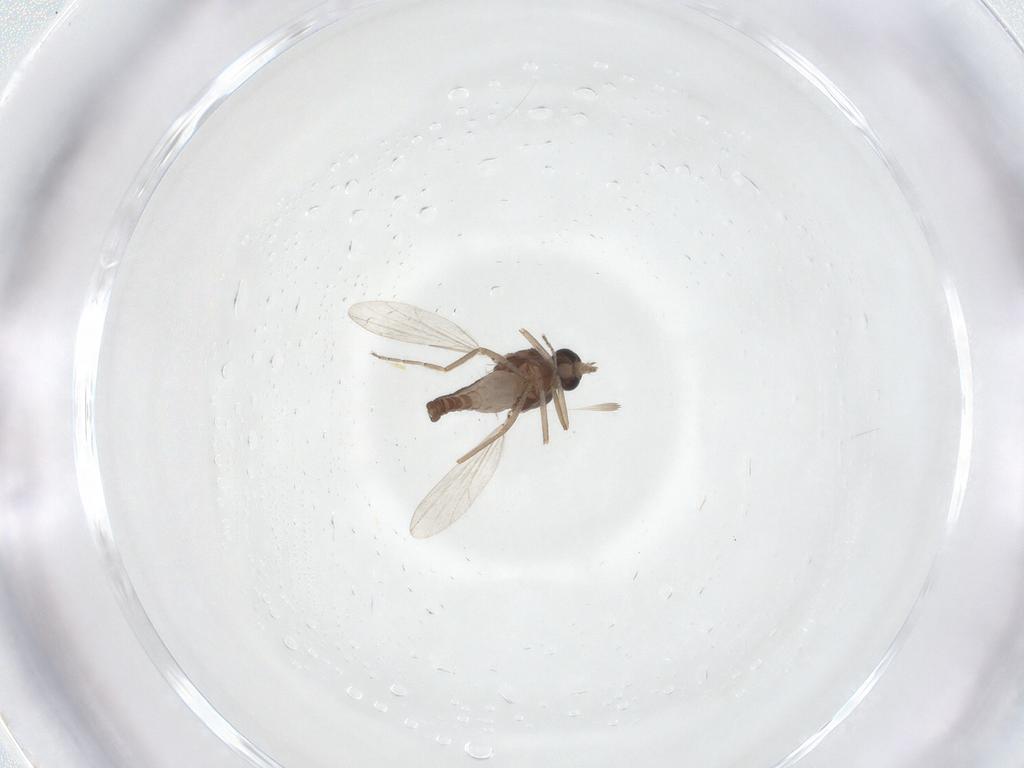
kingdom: Animalia
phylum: Arthropoda
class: Insecta
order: Diptera
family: Ceratopogonidae
